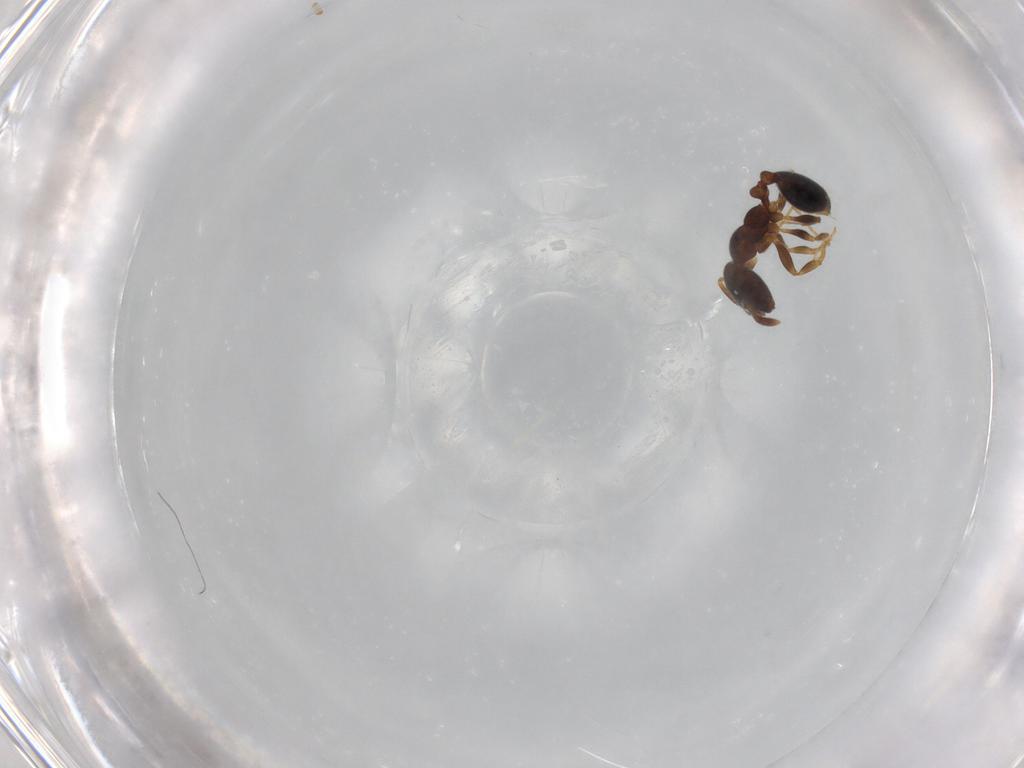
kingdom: Animalia
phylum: Arthropoda
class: Insecta
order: Hymenoptera
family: Formicidae
